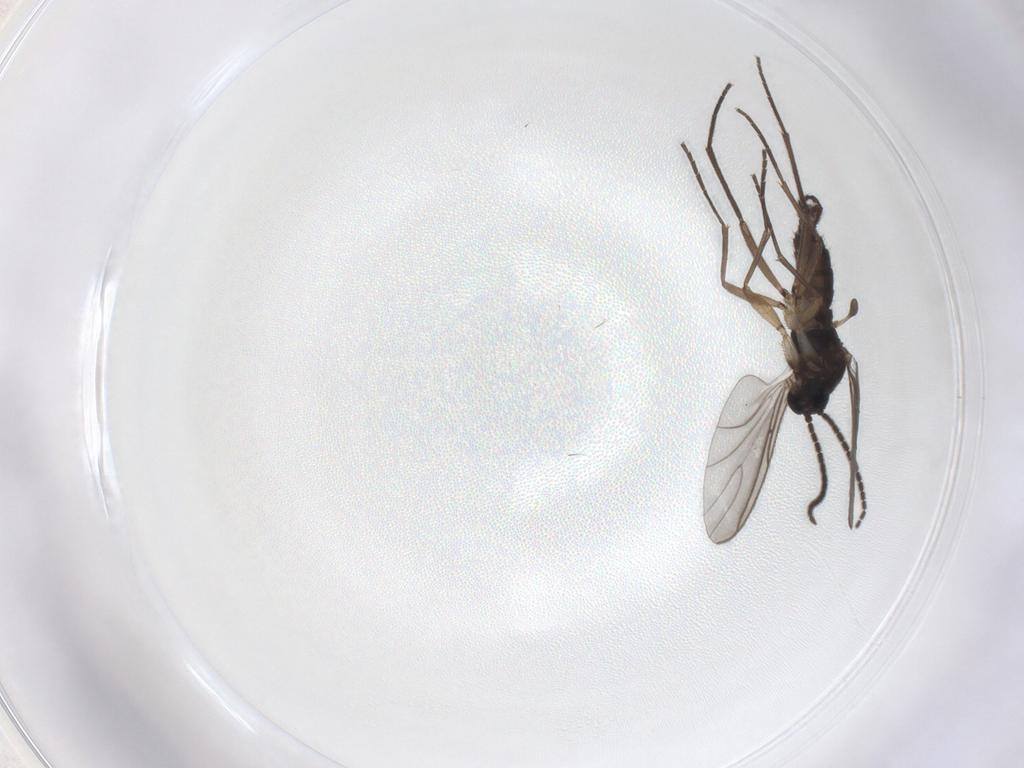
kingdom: Animalia
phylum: Arthropoda
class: Insecta
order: Diptera
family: Sciaridae
